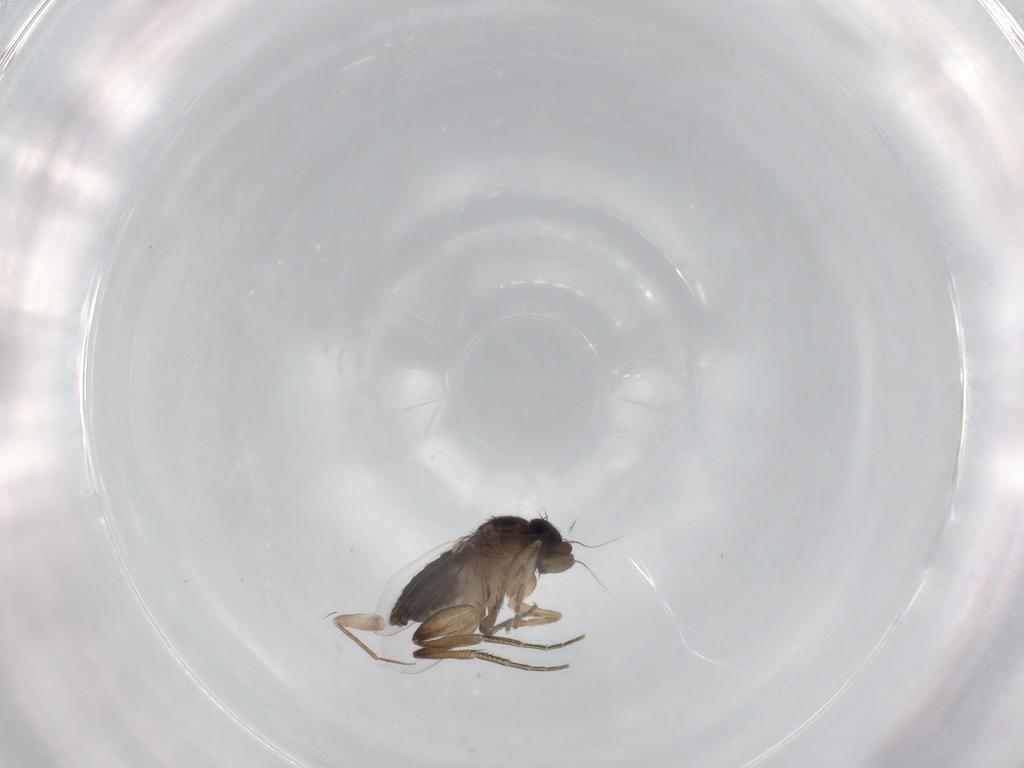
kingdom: Animalia
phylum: Arthropoda
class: Insecta
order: Diptera
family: Phoridae
